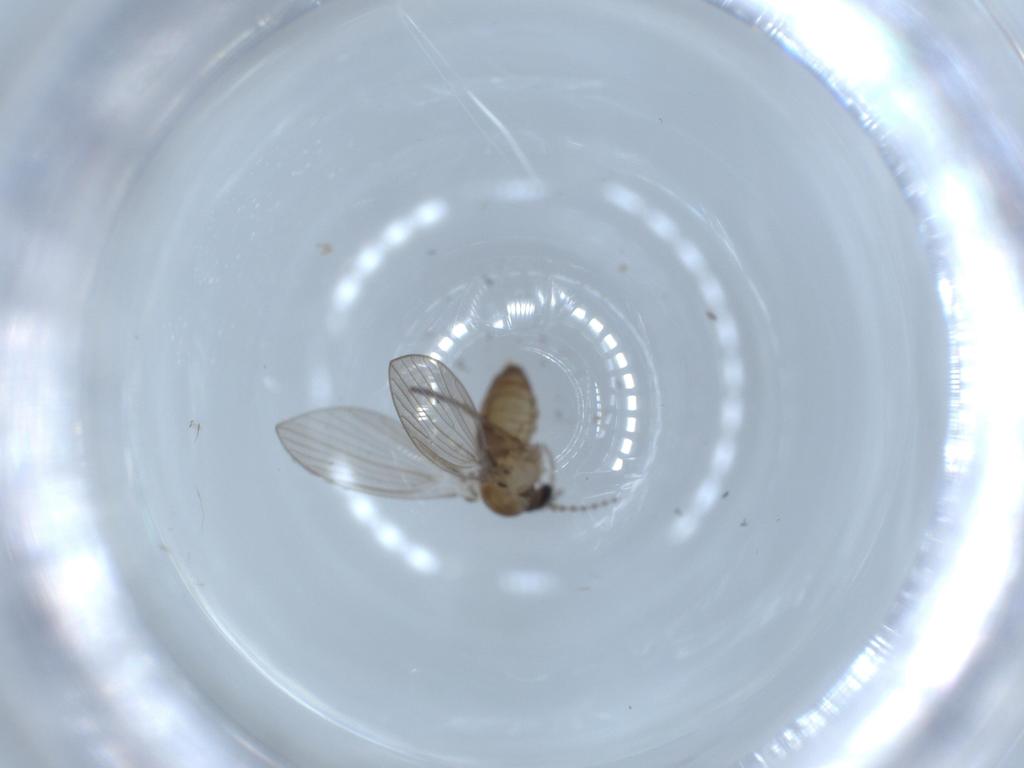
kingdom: Animalia
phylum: Arthropoda
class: Insecta
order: Diptera
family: Psychodidae
